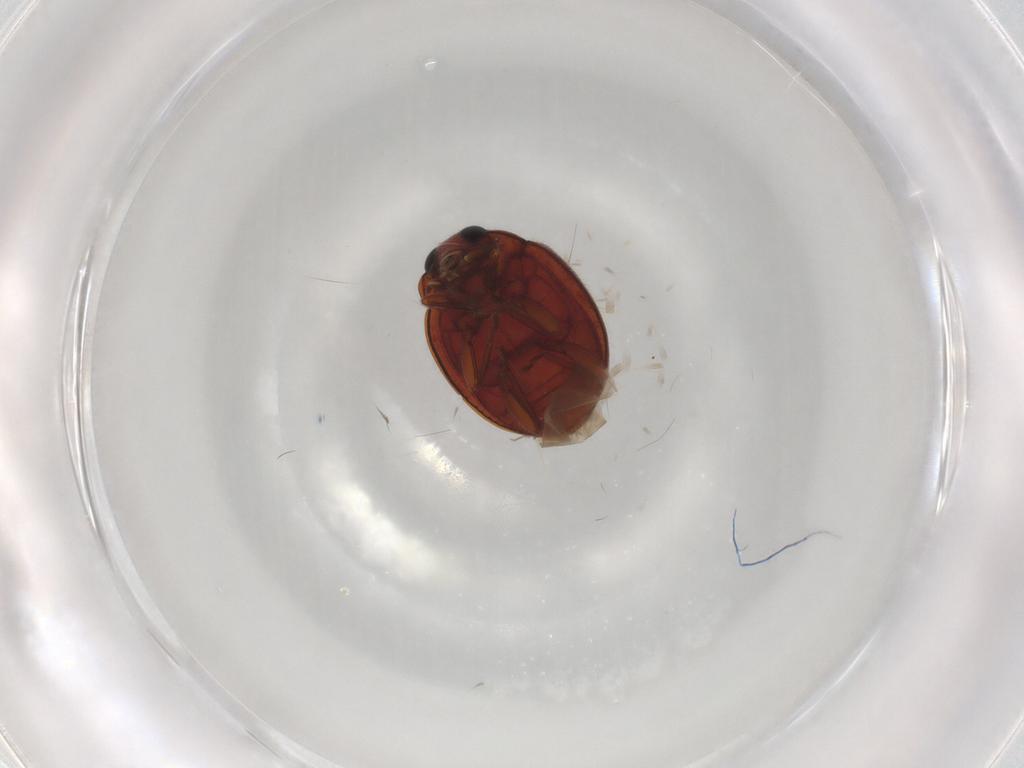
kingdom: Animalia
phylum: Arthropoda
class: Insecta
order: Coleoptera
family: Coccinellidae
